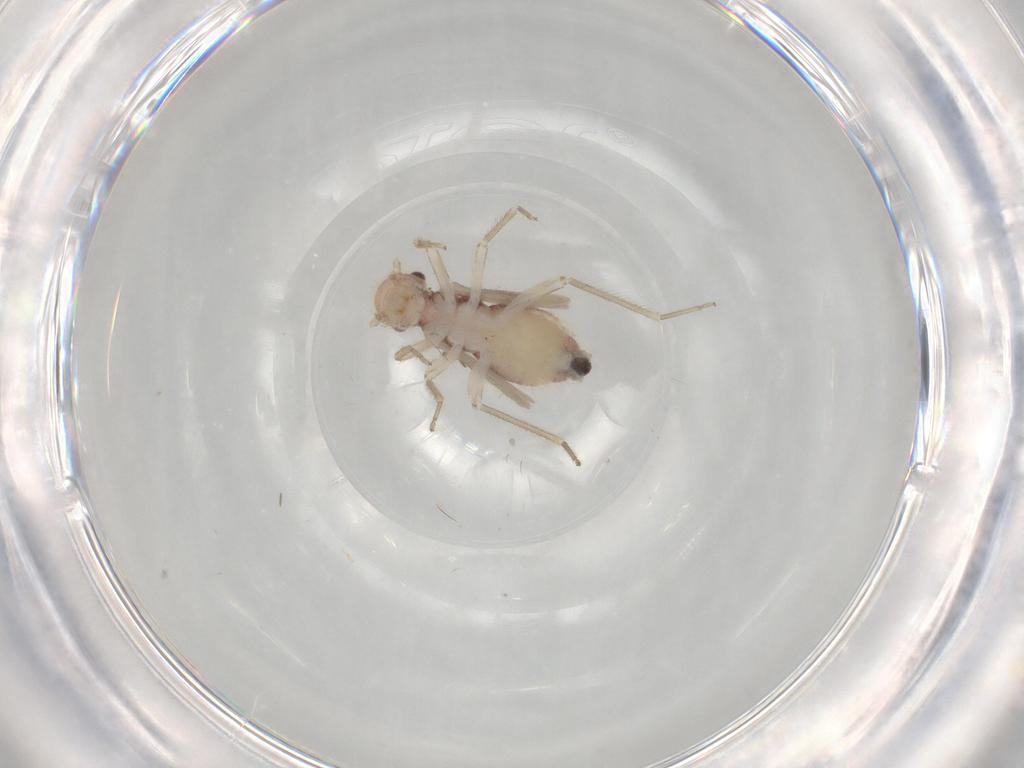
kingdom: Animalia
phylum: Arthropoda
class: Insecta
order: Psocodea
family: Cladiopsocidae
